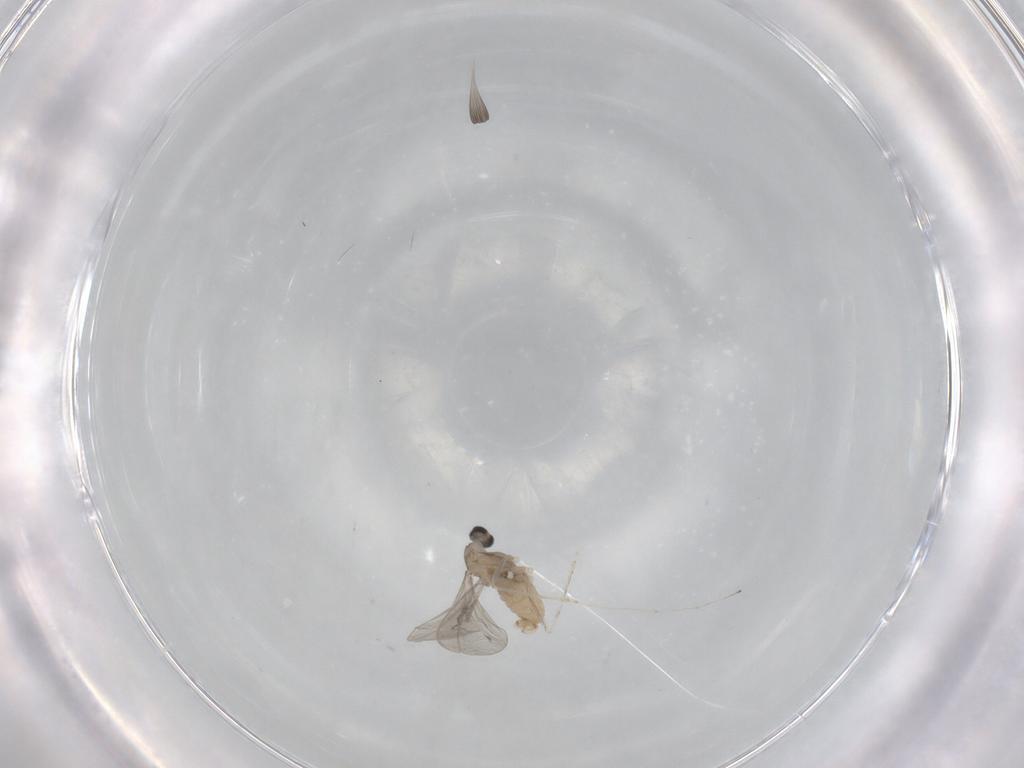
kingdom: Animalia
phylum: Arthropoda
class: Insecta
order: Diptera
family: Cecidomyiidae
